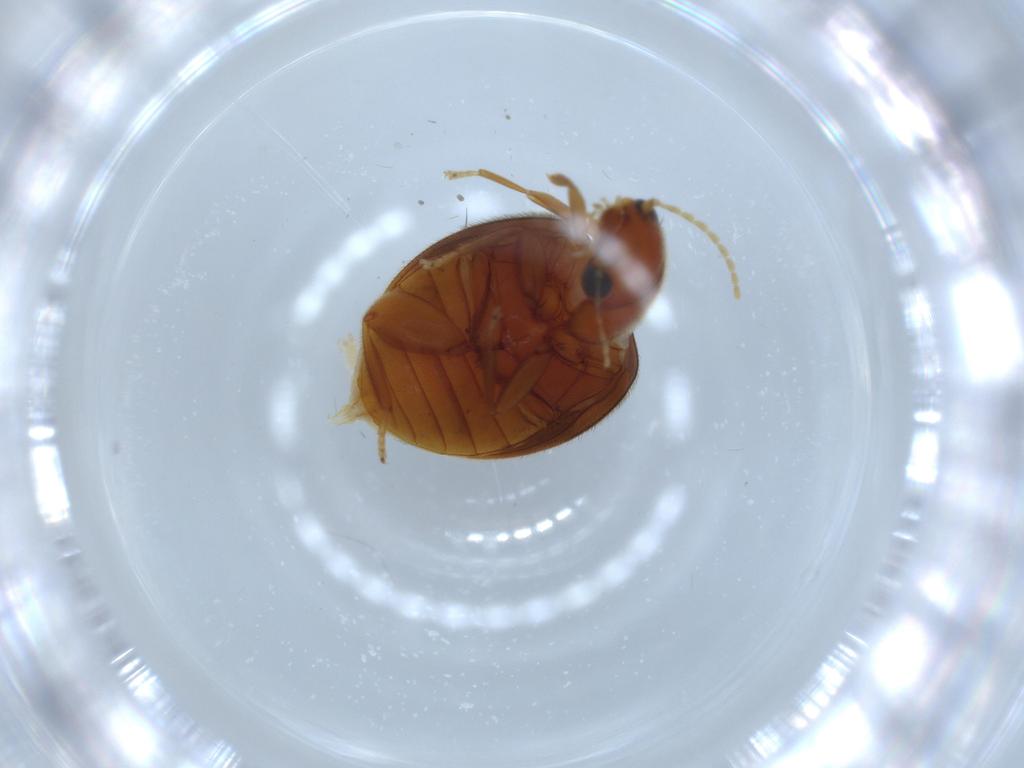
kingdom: Animalia
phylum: Arthropoda
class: Insecta
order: Coleoptera
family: Scirtidae
